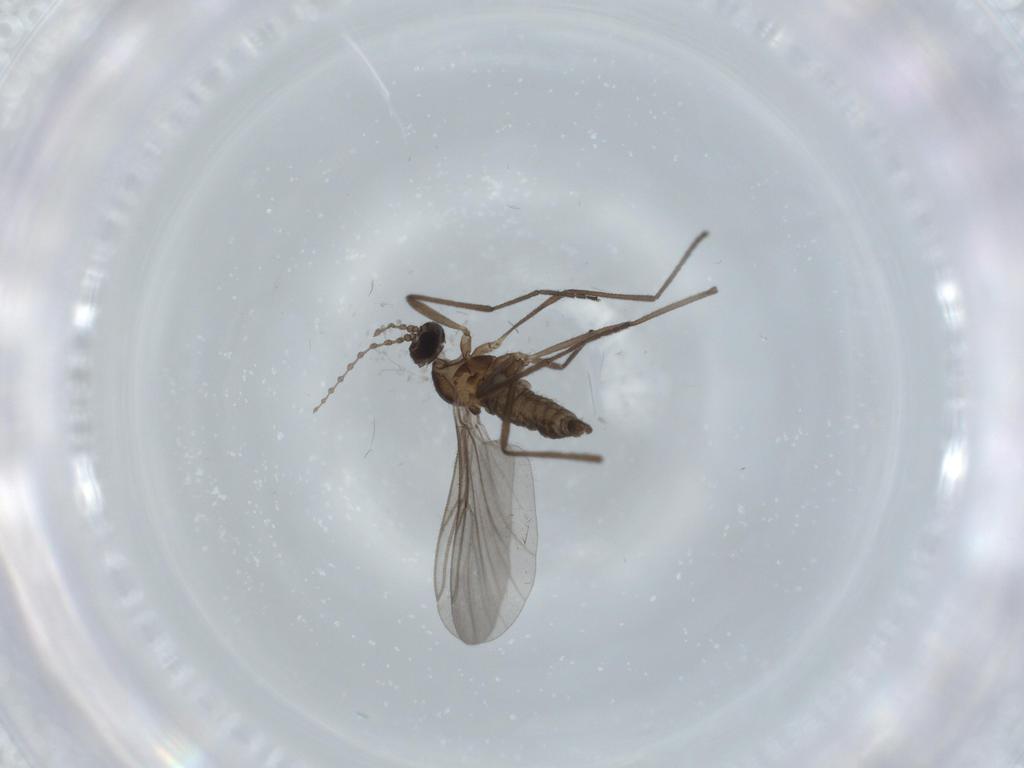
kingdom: Animalia
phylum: Arthropoda
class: Insecta
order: Diptera
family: Cecidomyiidae
